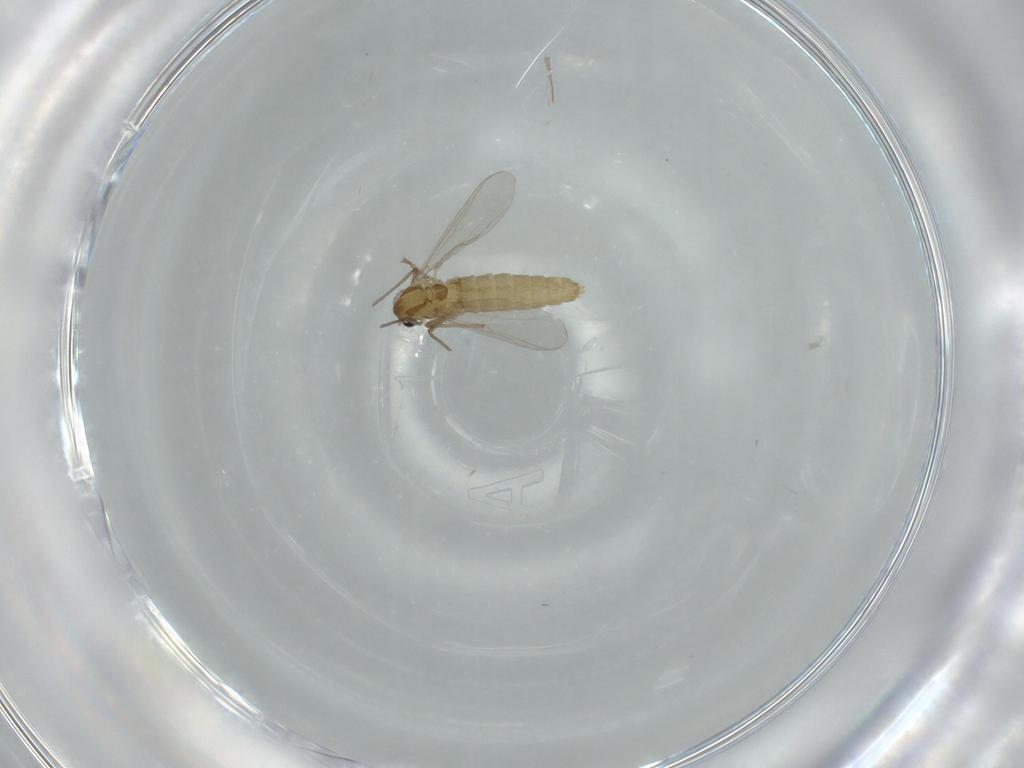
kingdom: Animalia
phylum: Arthropoda
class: Insecta
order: Diptera
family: Chironomidae
